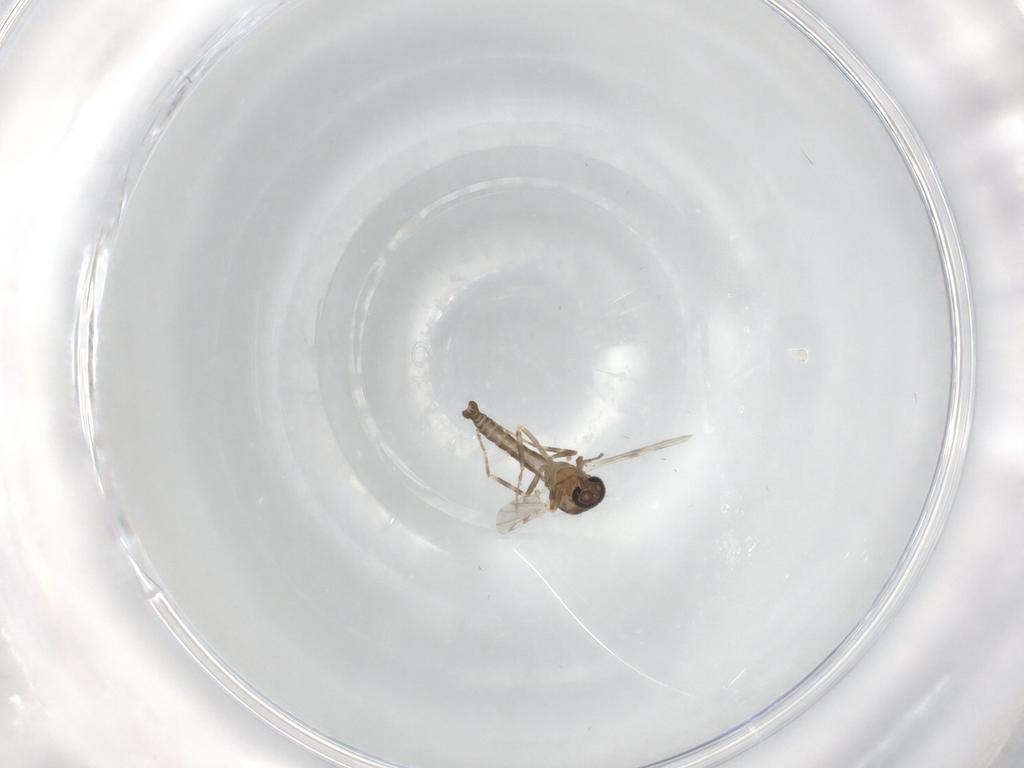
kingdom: Animalia
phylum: Arthropoda
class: Insecta
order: Diptera
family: Ceratopogonidae
